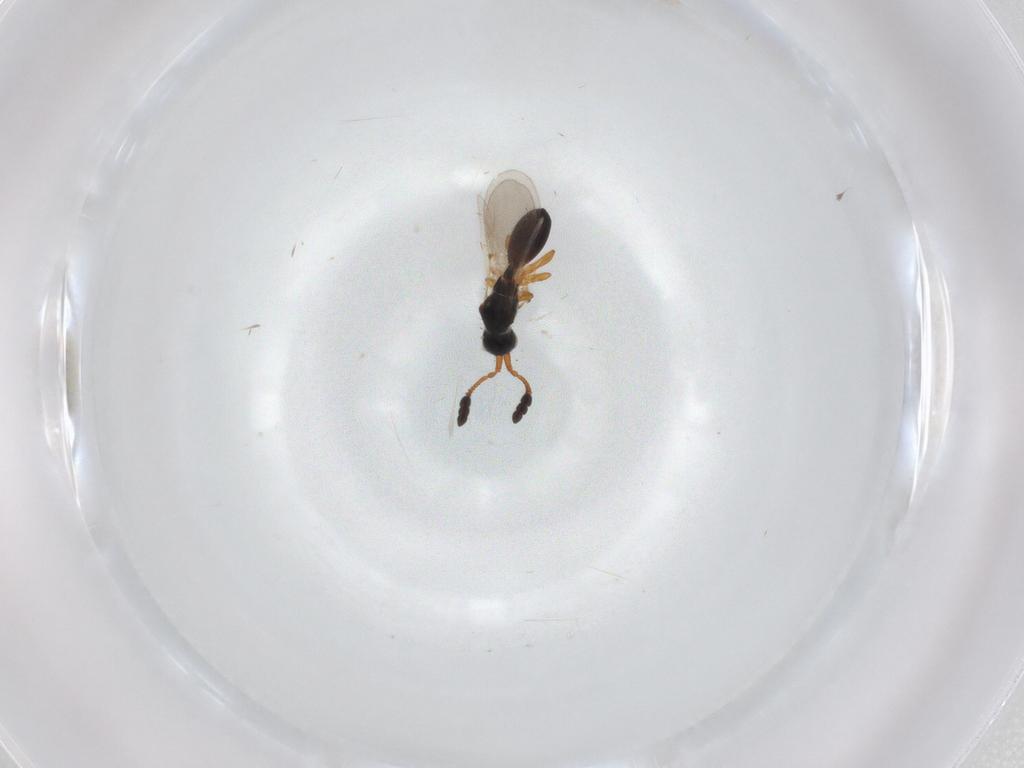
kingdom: Animalia
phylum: Arthropoda
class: Insecta
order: Hymenoptera
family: Diapriidae
